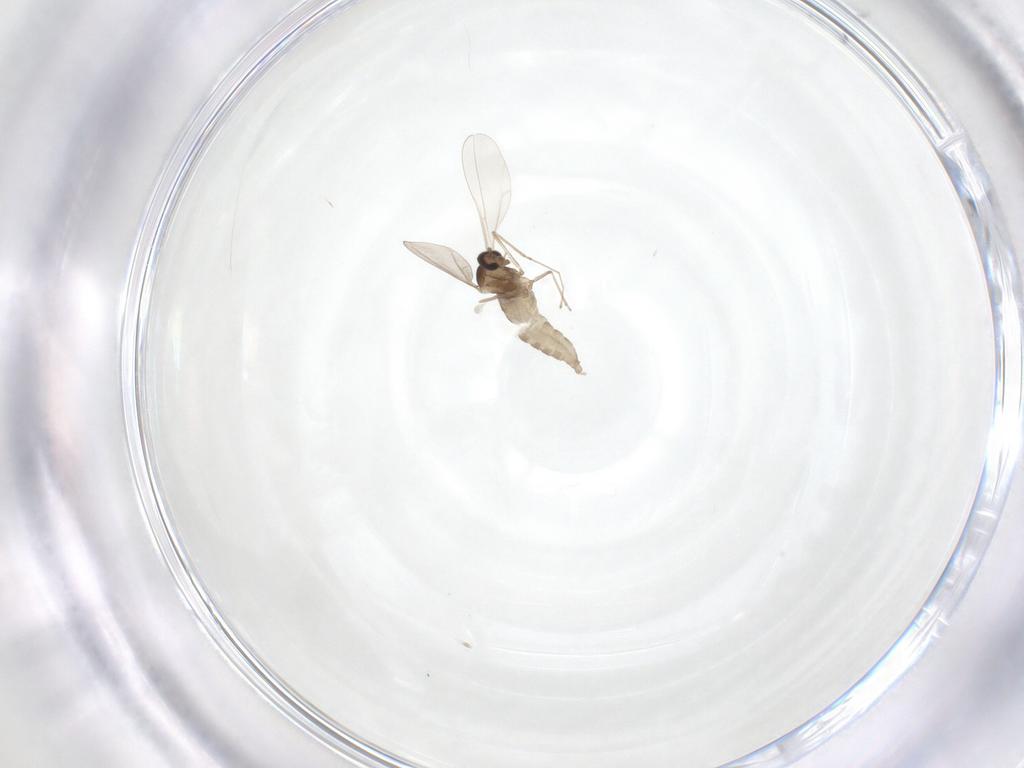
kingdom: Animalia
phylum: Arthropoda
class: Insecta
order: Diptera
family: Cecidomyiidae
